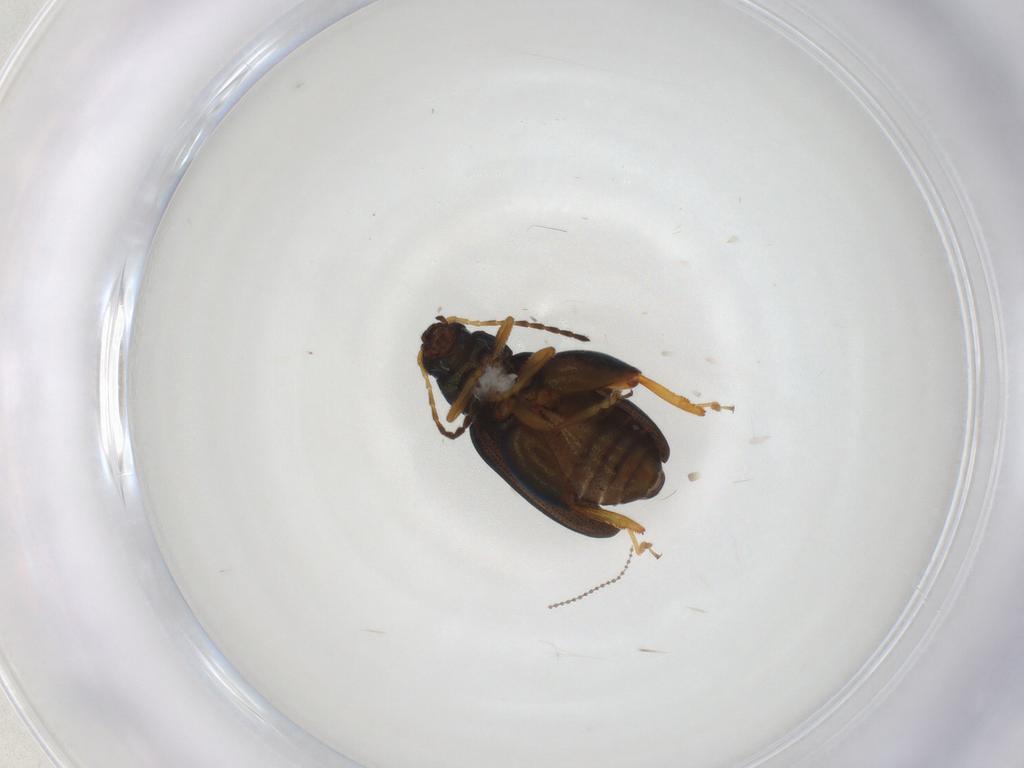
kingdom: Animalia
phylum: Arthropoda
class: Insecta
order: Coleoptera
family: Chrysomelidae
